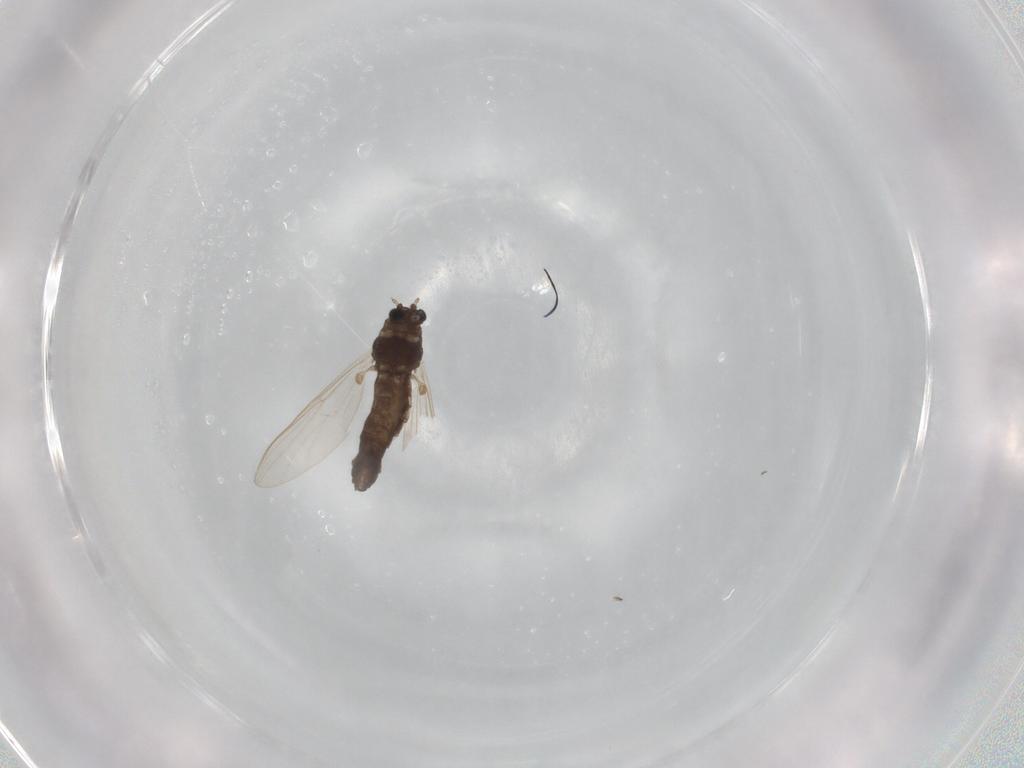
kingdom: Animalia
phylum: Arthropoda
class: Insecta
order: Diptera
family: Chironomidae
